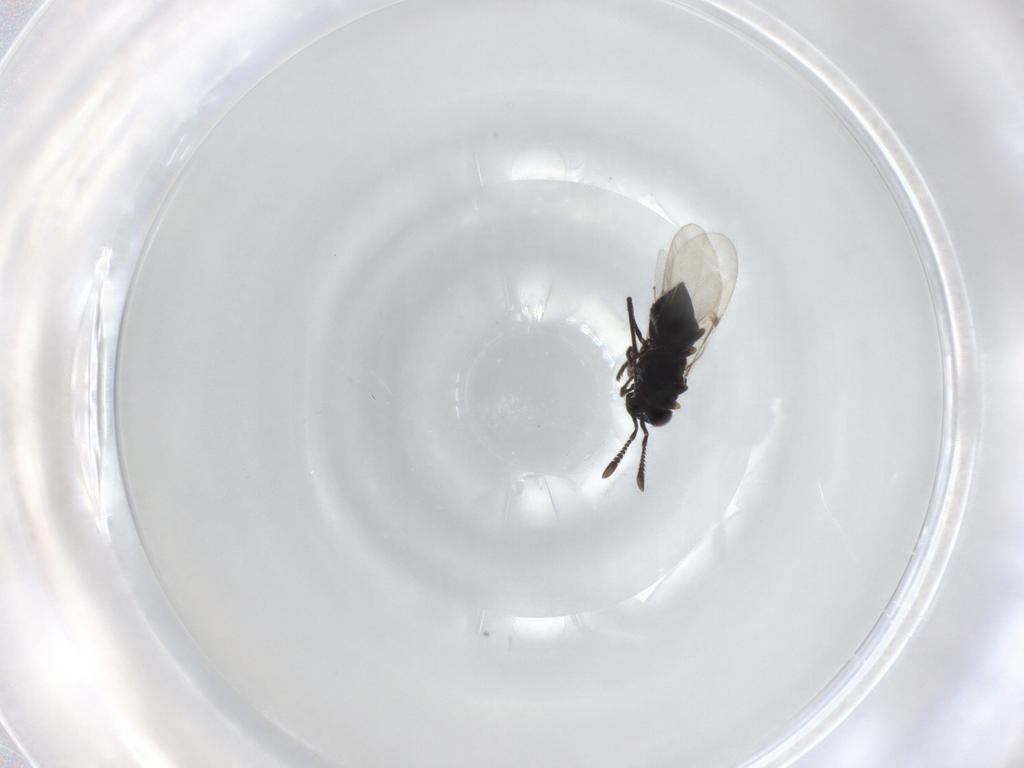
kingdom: Animalia
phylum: Arthropoda
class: Insecta
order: Hymenoptera
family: Encyrtidae
